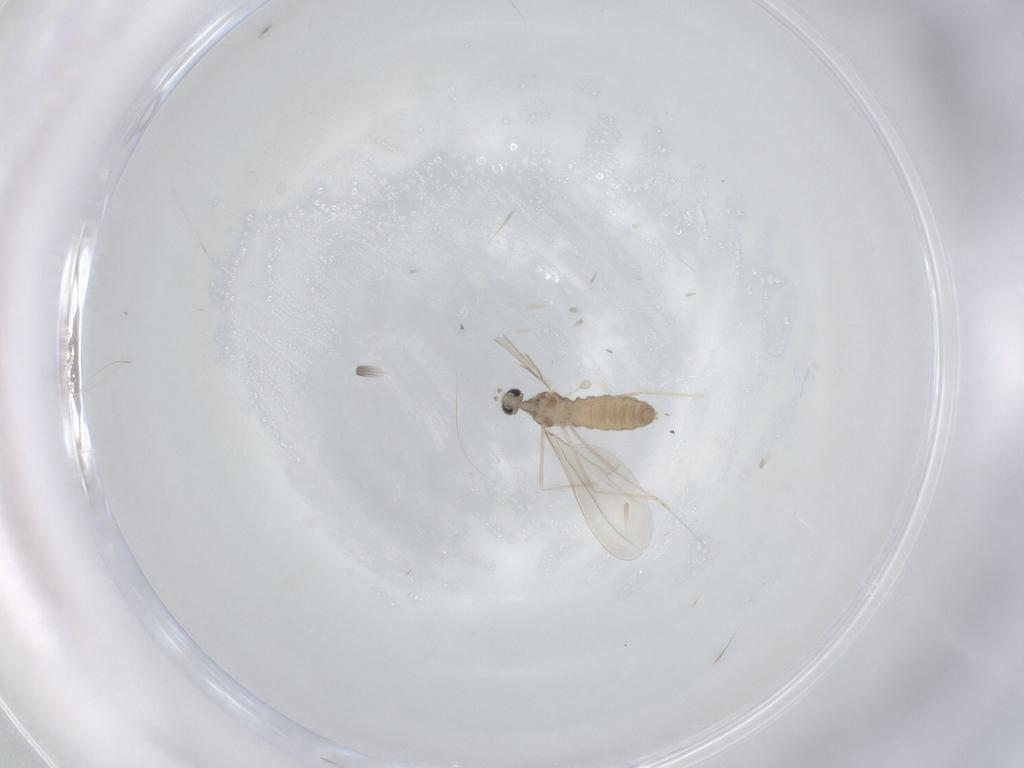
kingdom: Animalia
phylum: Arthropoda
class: Insecta
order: Diptera
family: Cecidomyiidae
